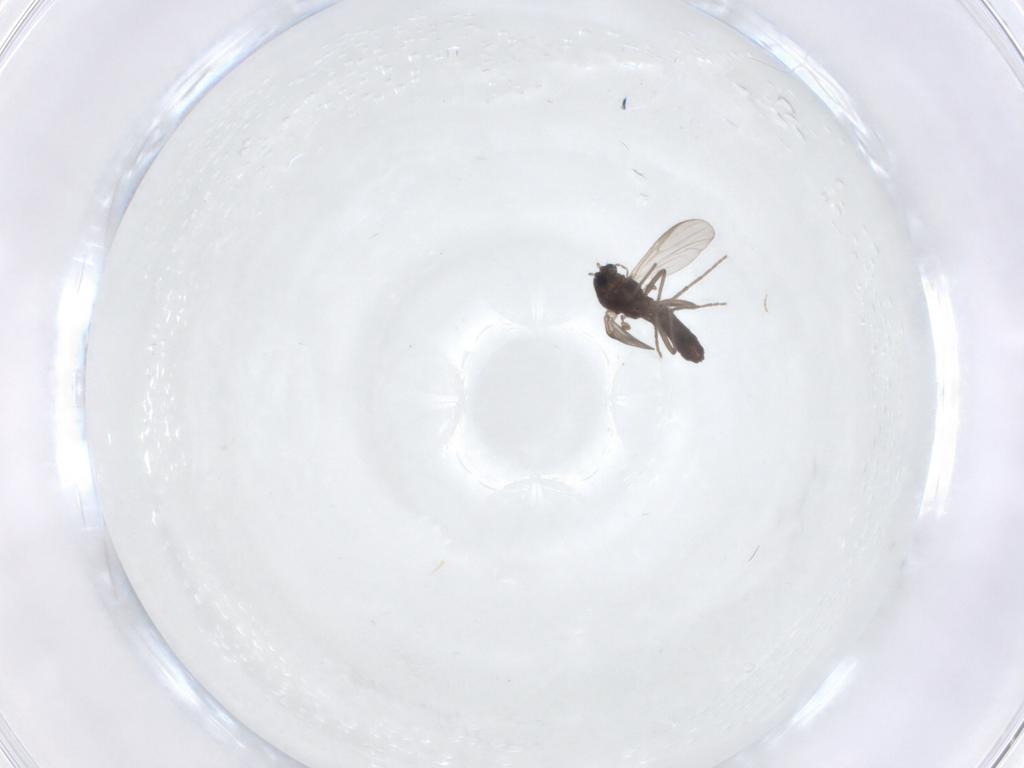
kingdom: Animalia
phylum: Arthropoda
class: Insecta
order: Diptera
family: Chironomidae
